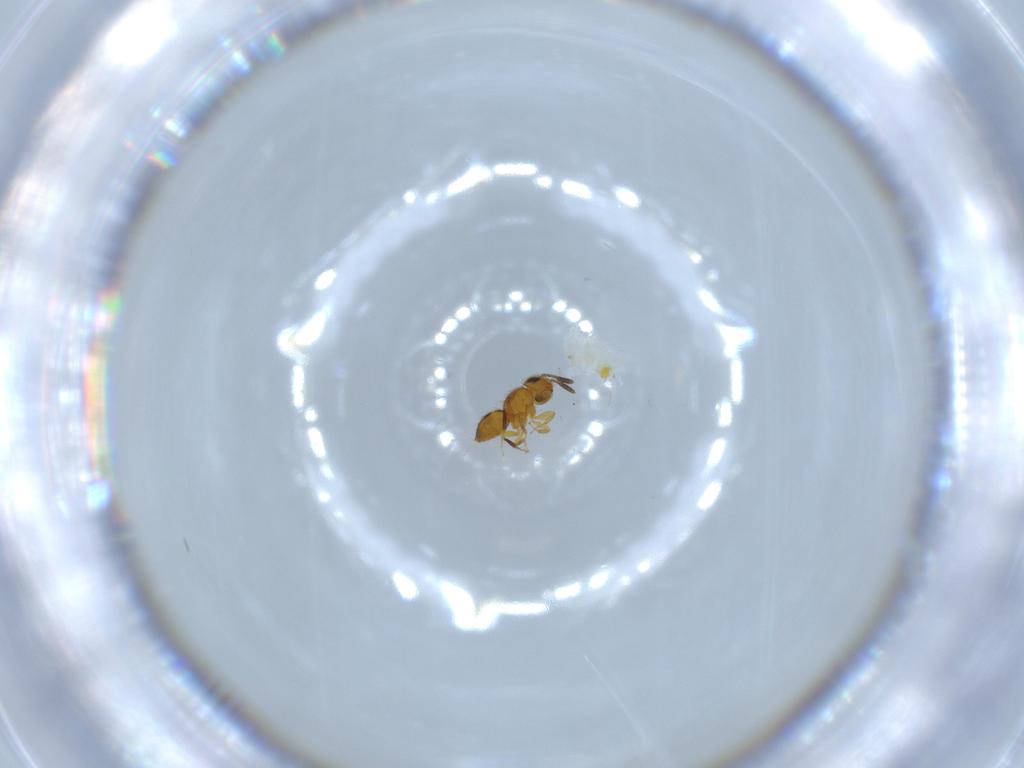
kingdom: Animalia
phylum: Arthropoda
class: Insecta
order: Hymenoptera
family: Scelionidae
